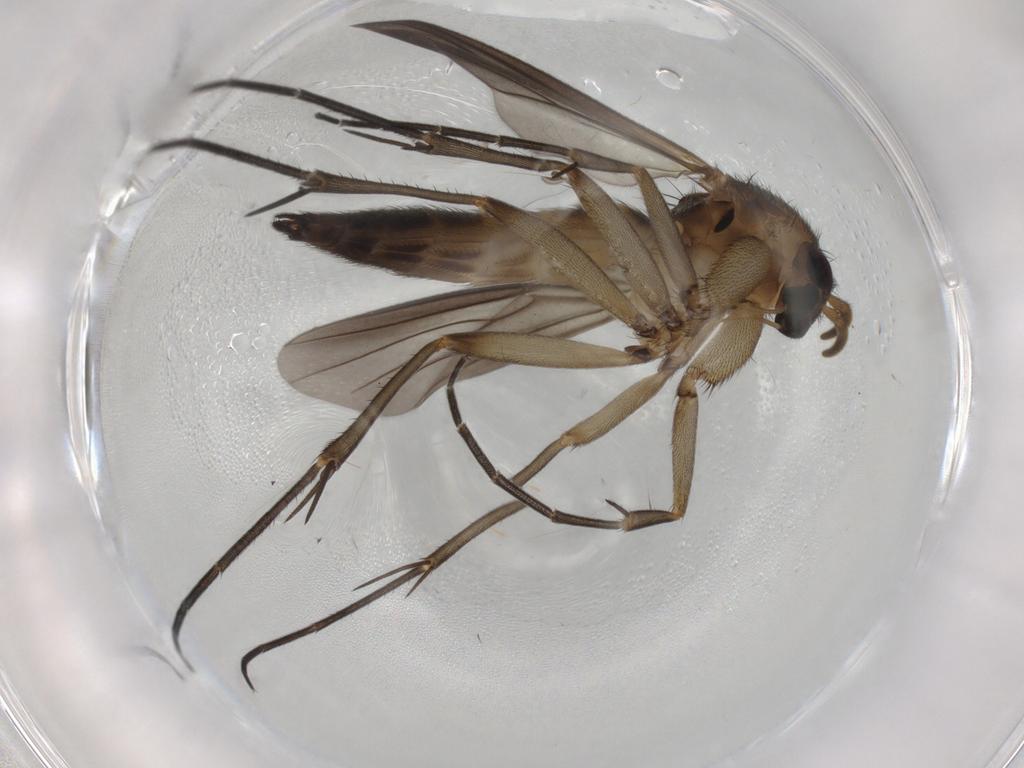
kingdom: Animalia
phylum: Arthropoda
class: Insecta
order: Diptera
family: Mycetophilidae
